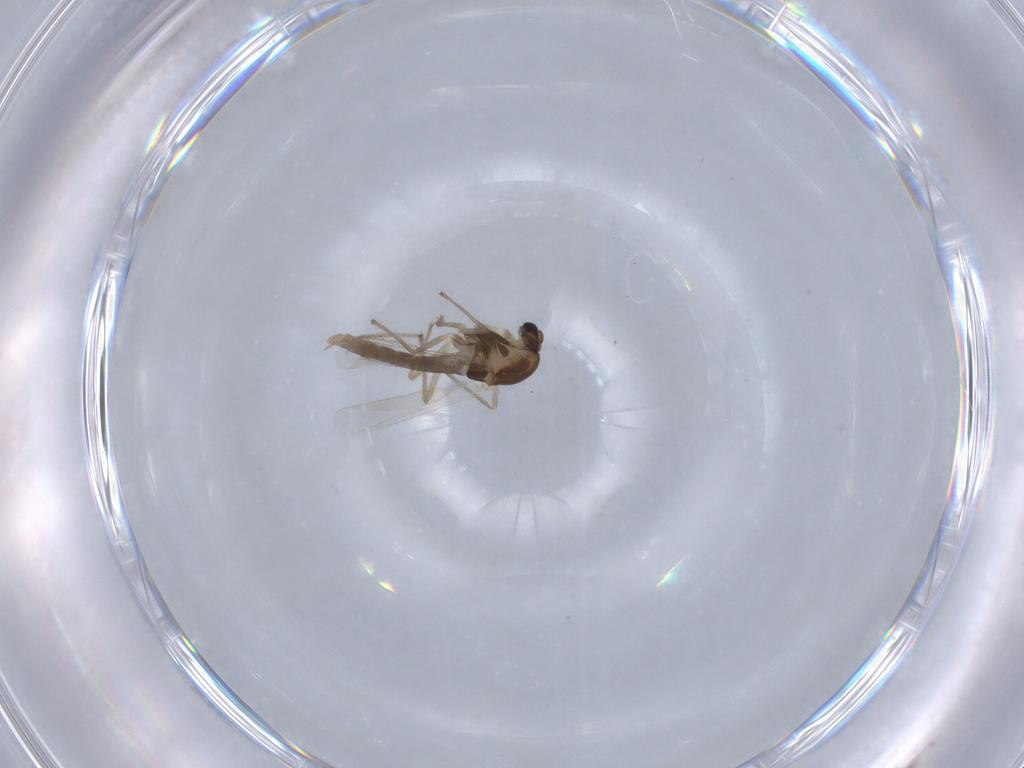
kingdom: Animalia
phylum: Arthropoda
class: Insecta
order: Diptera
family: Chironomidae
